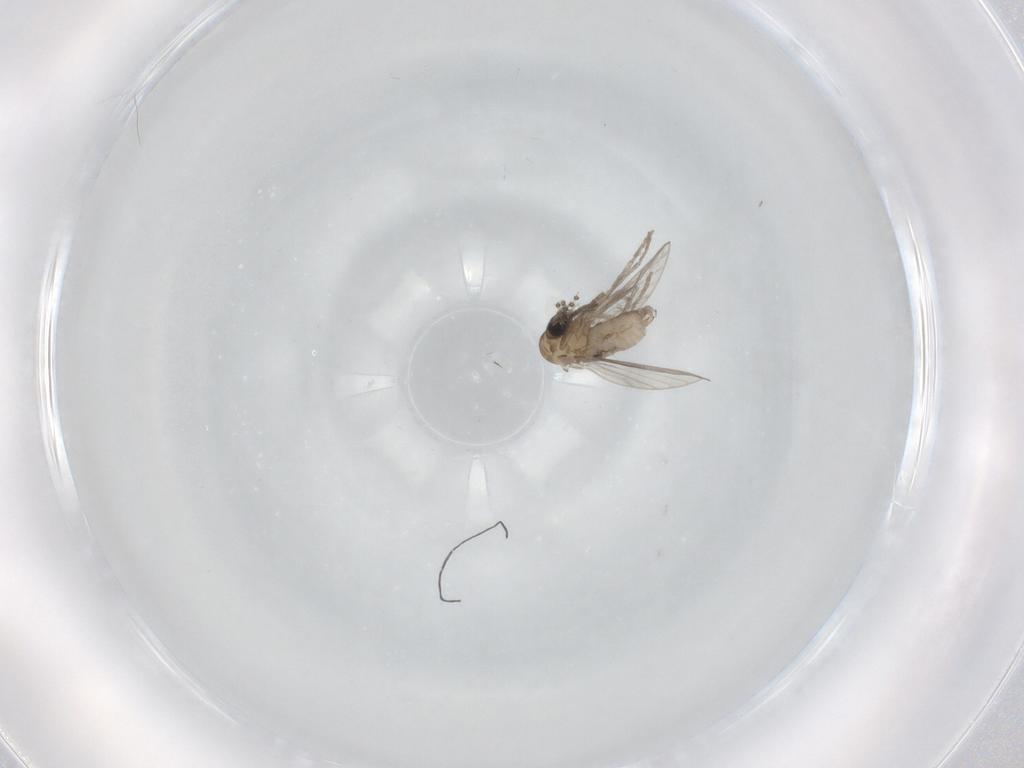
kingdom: Animalia
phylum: Arthropoda
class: Insecta
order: Diptera
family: Psychodidae
